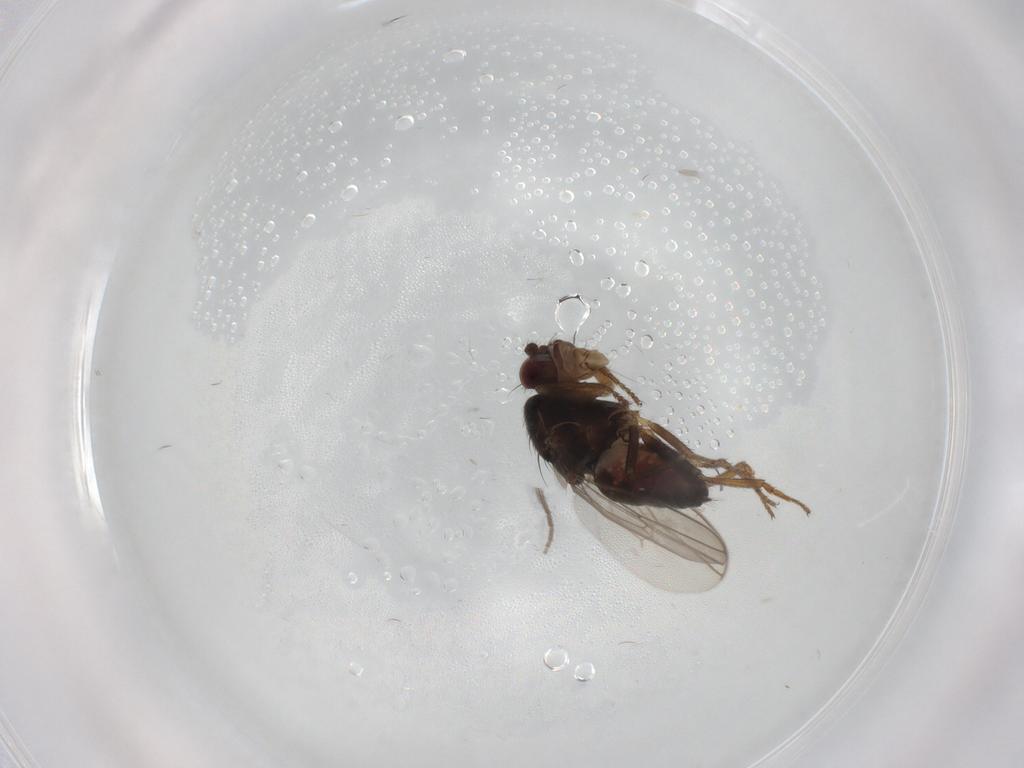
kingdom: Animalia
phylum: Arthropoda
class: Insecta
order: Diptera
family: Sphaeroceridae
